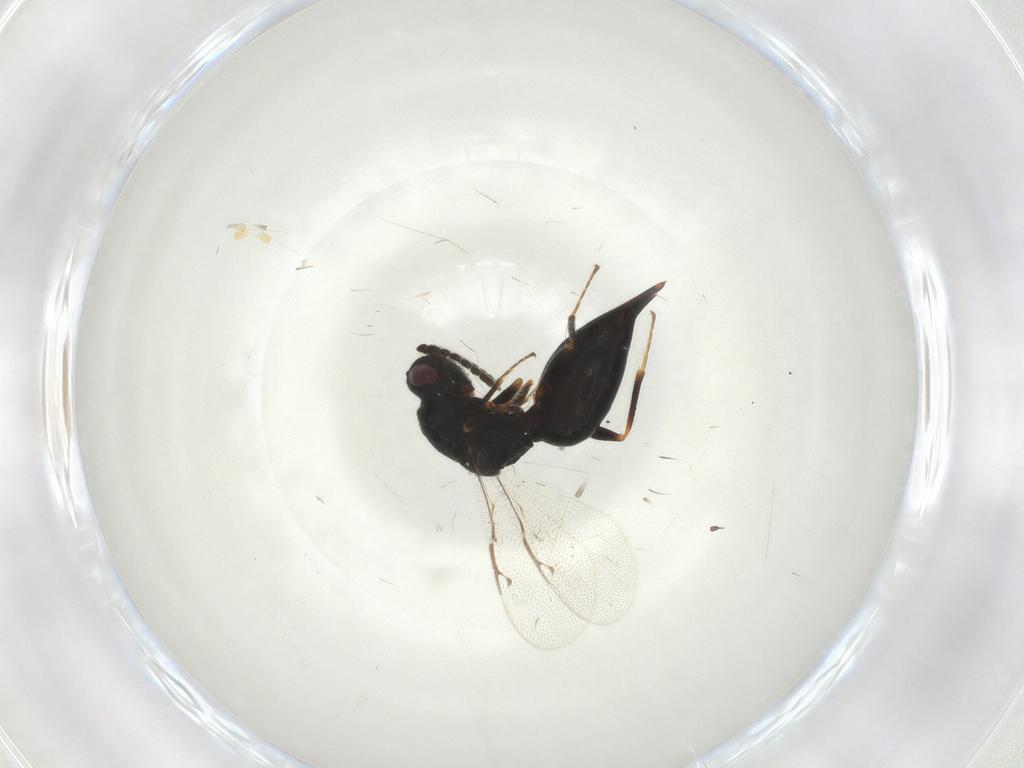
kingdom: Animalia
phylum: Arthropoda
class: Insecta
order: Hymenoptera
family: Eurytomidae
